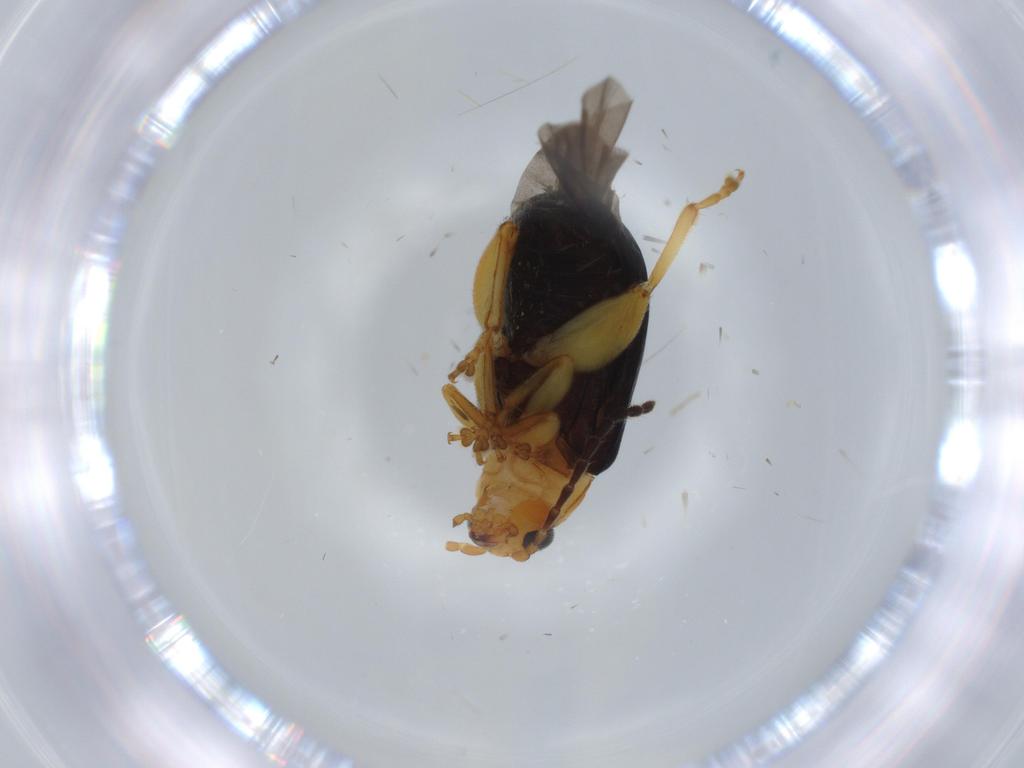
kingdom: Animalia
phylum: Arthropoda
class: Insecta
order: Coleoptera
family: Chrysomelidae
